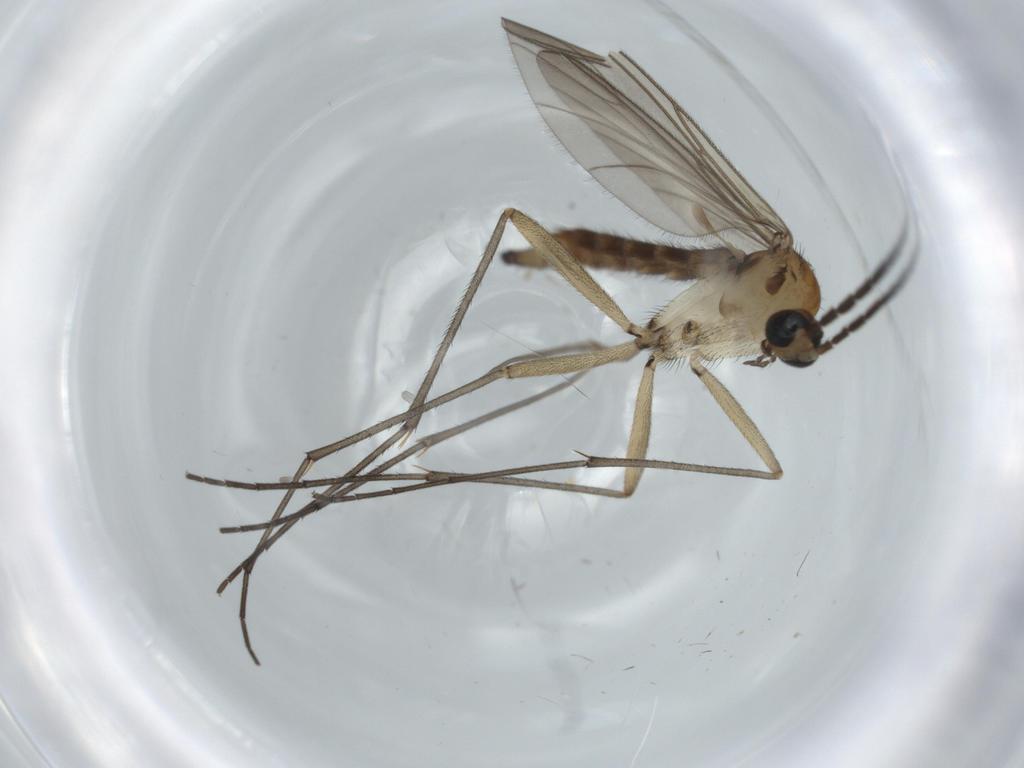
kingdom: Animalia
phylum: Arthropoda
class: Insecta
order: Diptera
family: Sciaridae
